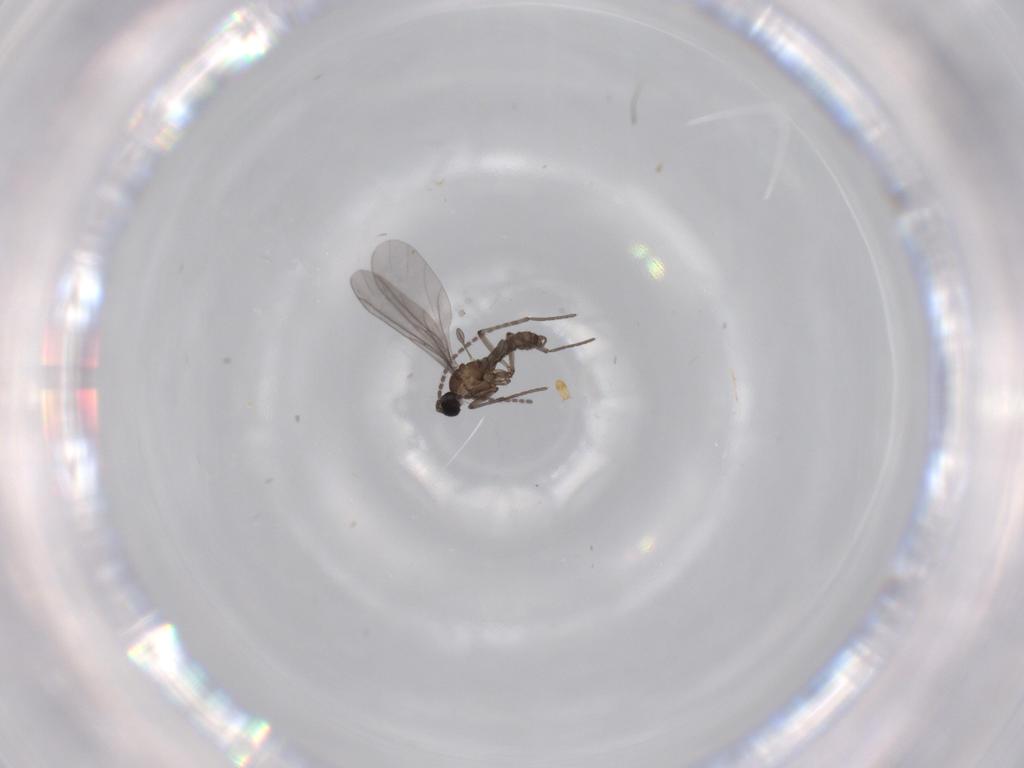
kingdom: Animalia
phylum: Arthropoda
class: Insecta
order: Diptera
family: Sciaridae
